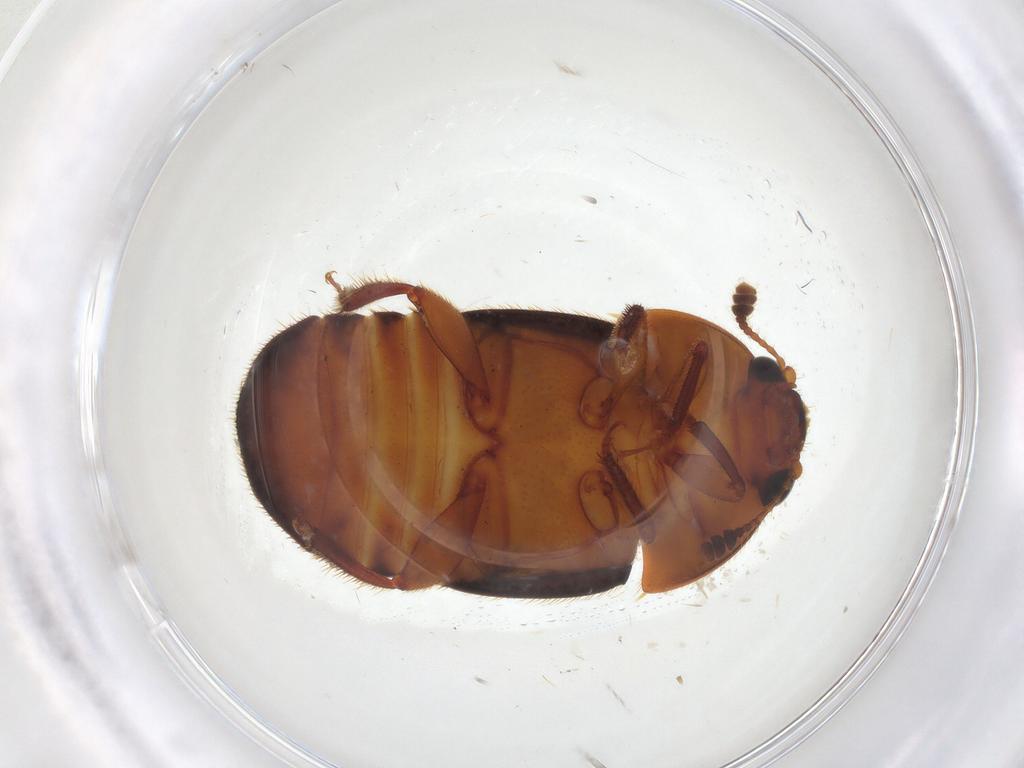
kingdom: Animalia
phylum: Arthropoda
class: Insecta
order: Coleoptera
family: Nitidulidae
